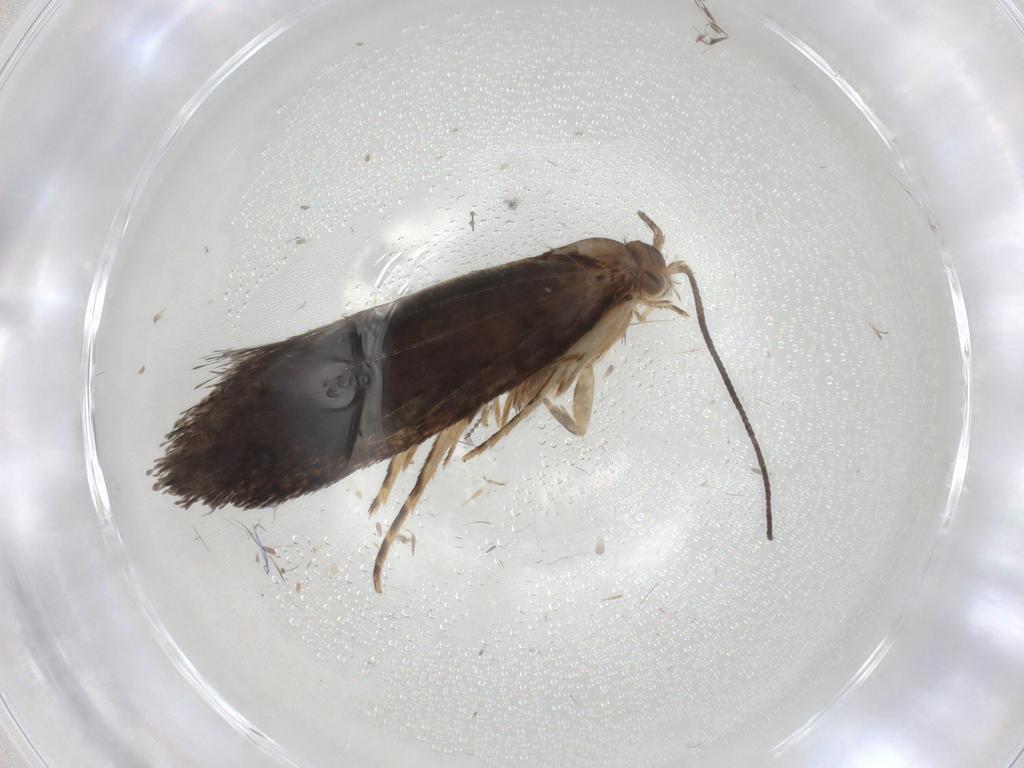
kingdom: Animalia
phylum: Arthropoda
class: Insecta
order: Lepidoptera
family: Tineidae
